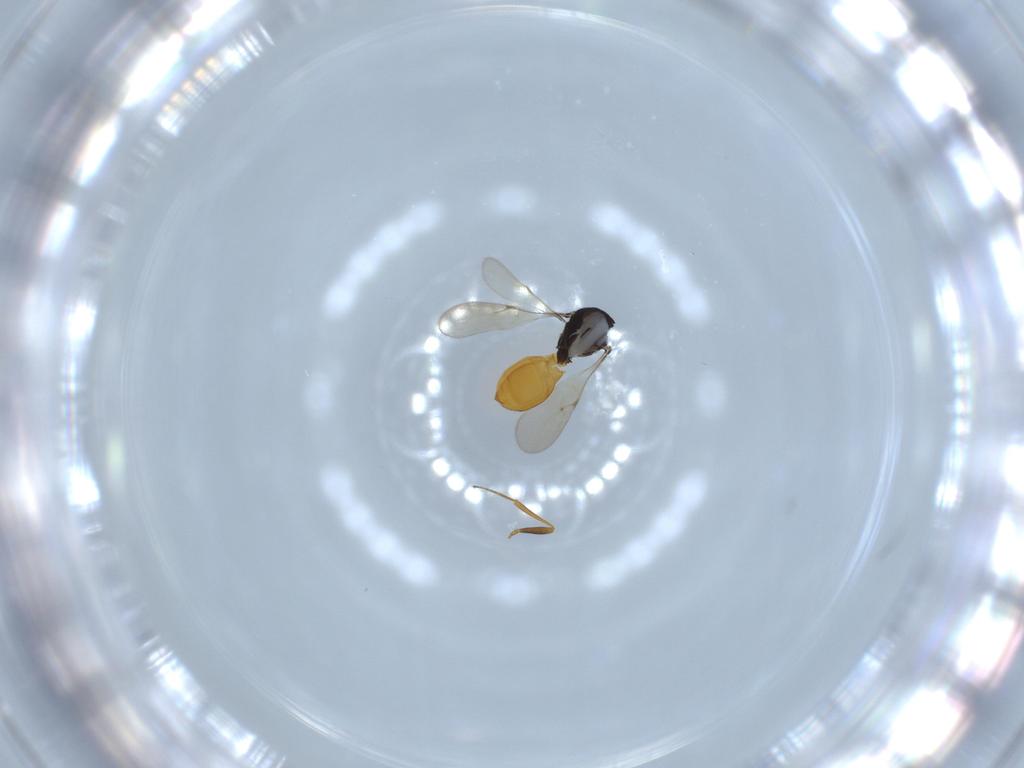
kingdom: Animalia
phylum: Arthropoda
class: Insecta
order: Hymenoptera
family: Scelionidae
